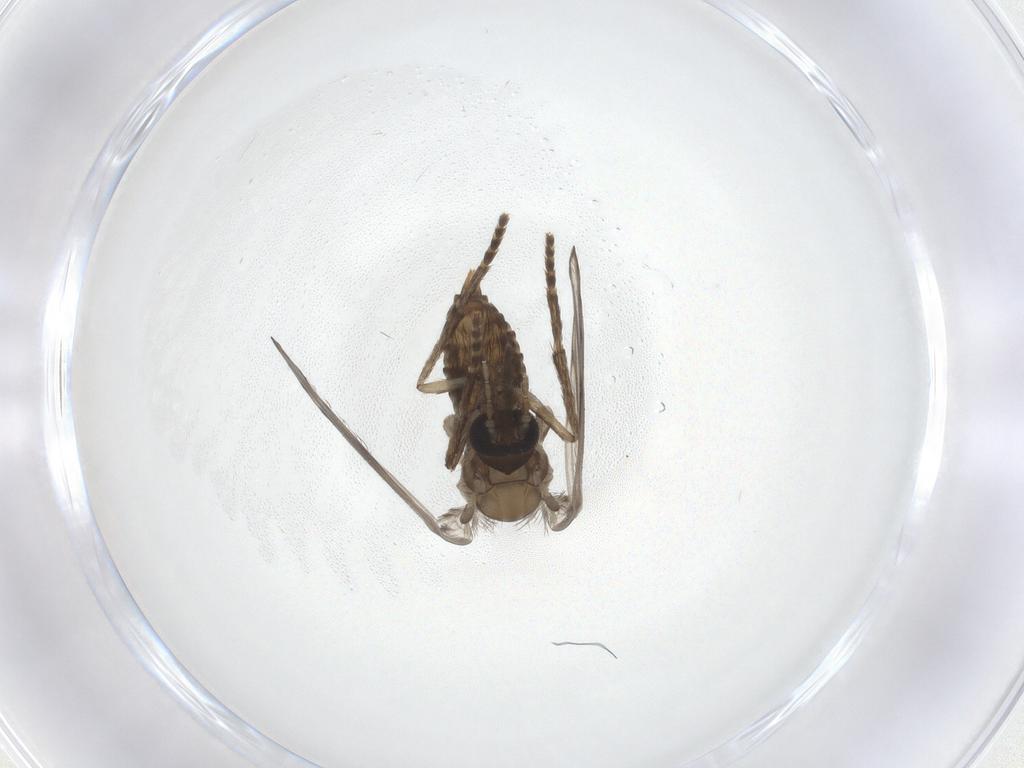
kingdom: Animalia
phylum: Arthropoda
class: Insecta
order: Diptera
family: Psychodidae
